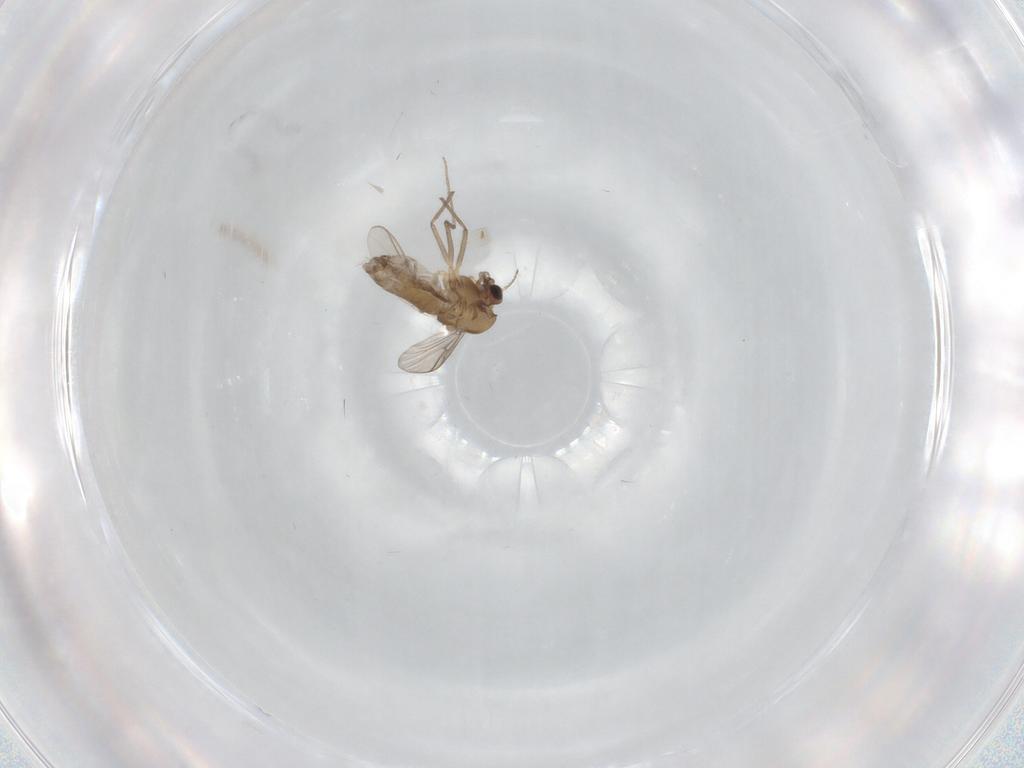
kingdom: Animalia
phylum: Arthropoda
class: Insecta
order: Diptera
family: Chironomidae
